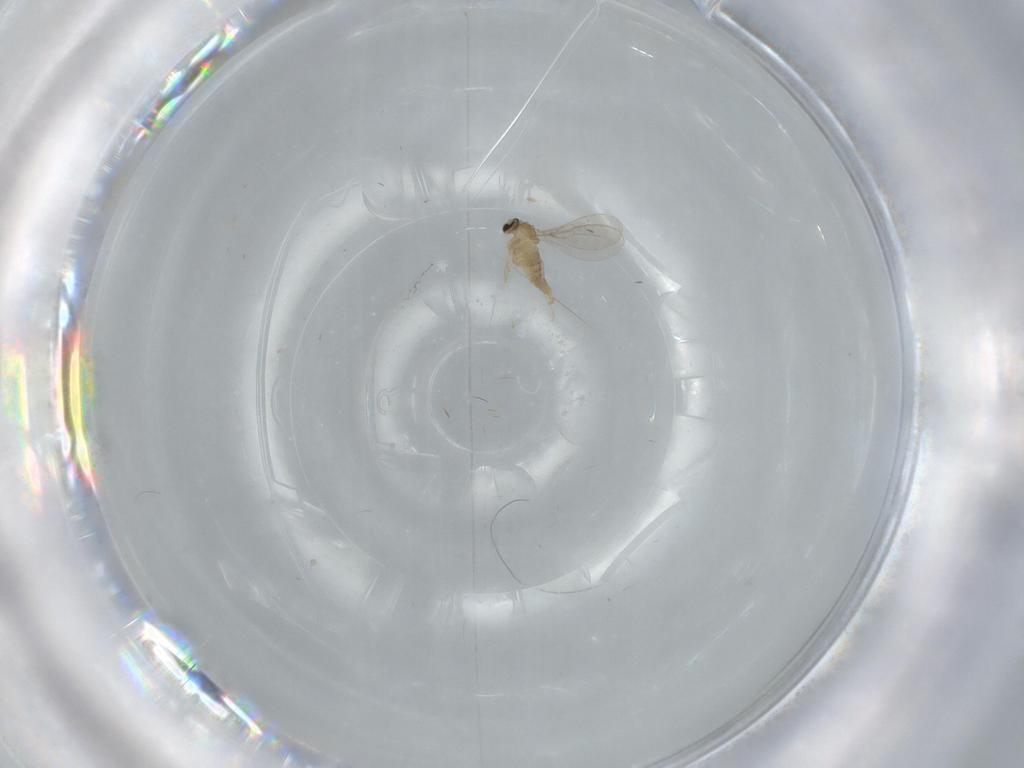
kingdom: Animalia
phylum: Arthropoda
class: Insecta
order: Diptera
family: Cecidomyiidae
